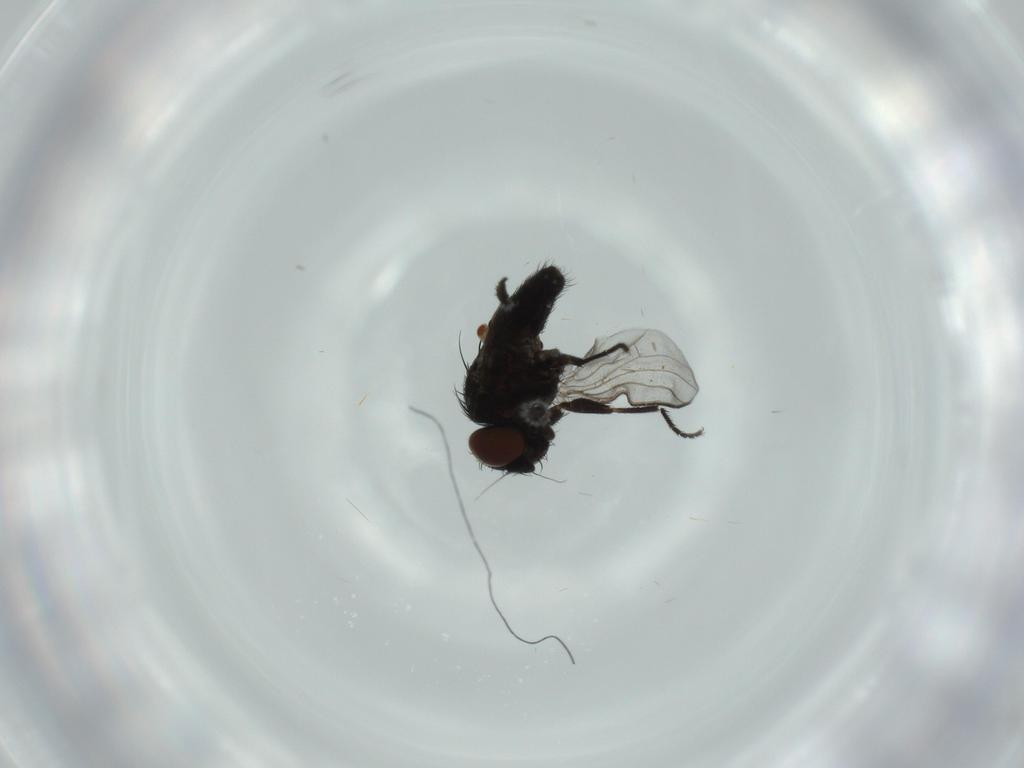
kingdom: Animalia
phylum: Arthropoda
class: Insecta
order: Diptera
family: Milichiidae
